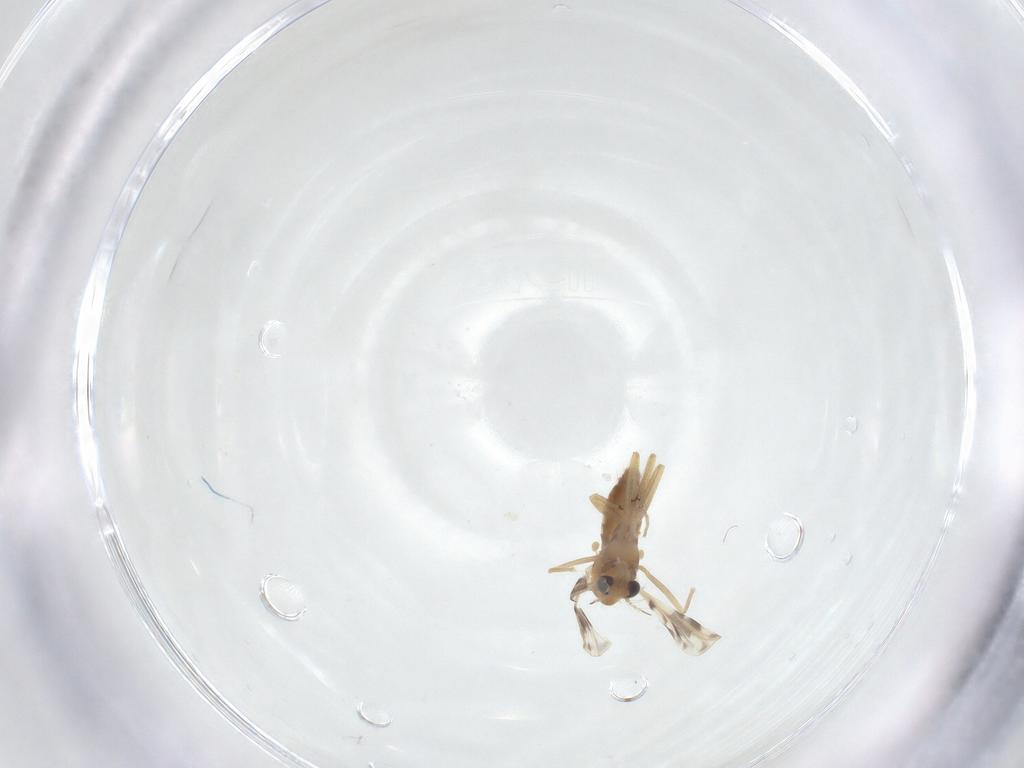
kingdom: Animalia
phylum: Arthropoda
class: Insecta
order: Diptera
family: Chironomidae
